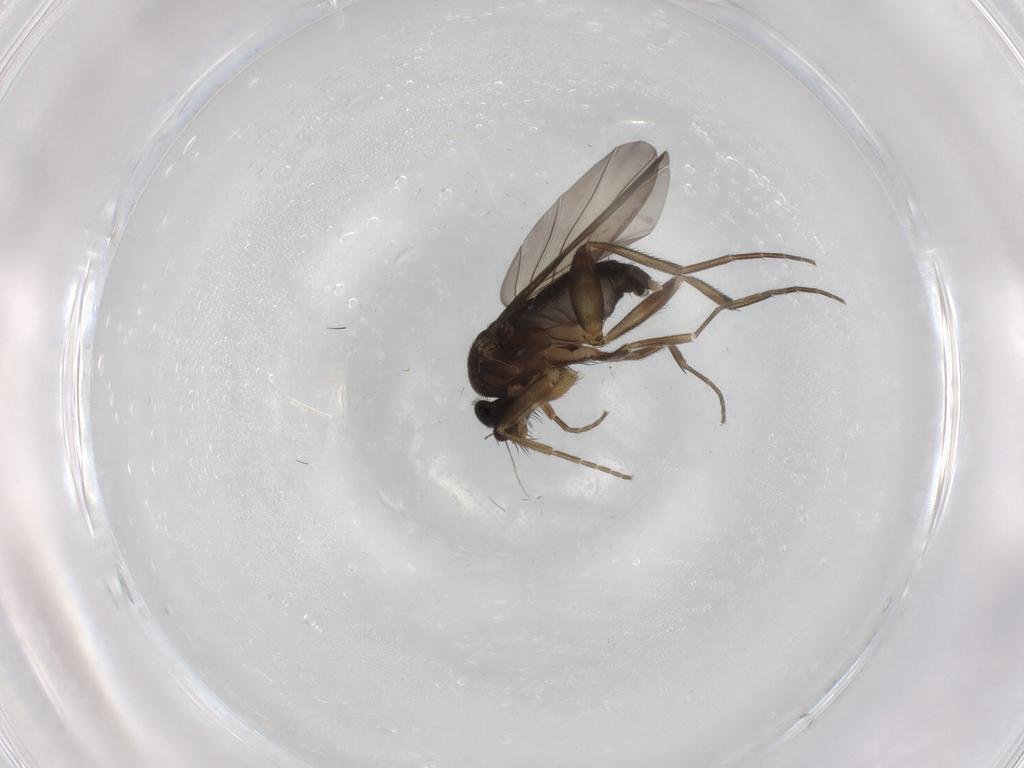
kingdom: Animalia
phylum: Arthropoda
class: Insecta
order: Diptera
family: Phoridae
